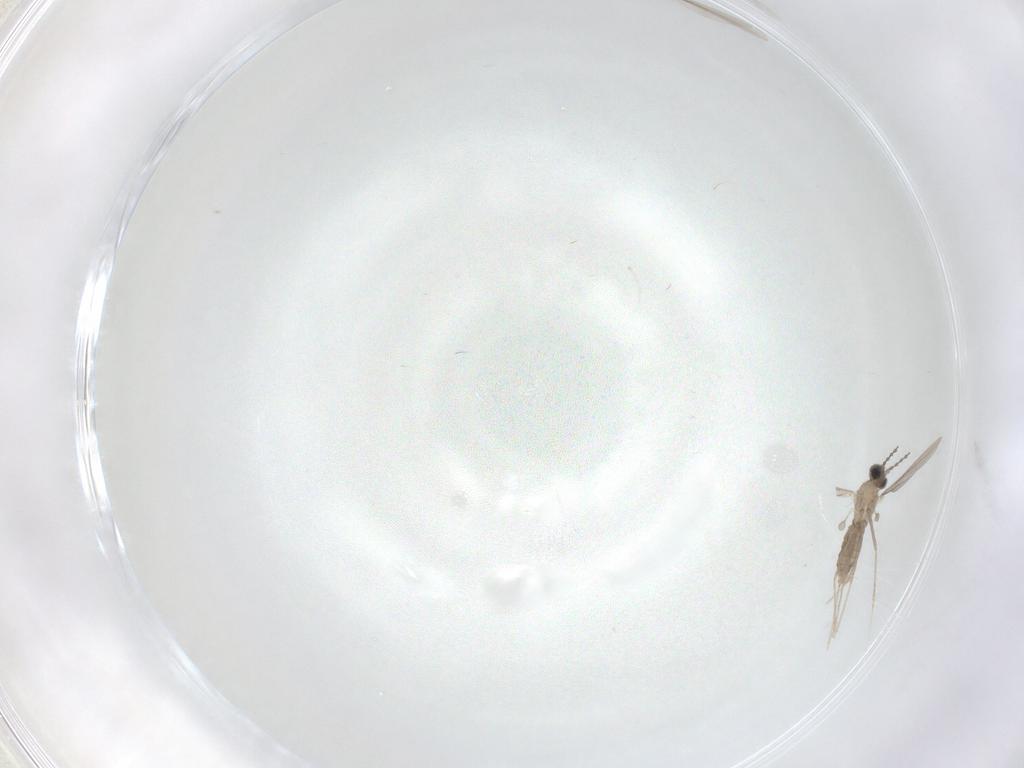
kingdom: Animalia
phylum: Arthropoda
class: Insecta
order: Diptera
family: Cecidomyiidae
